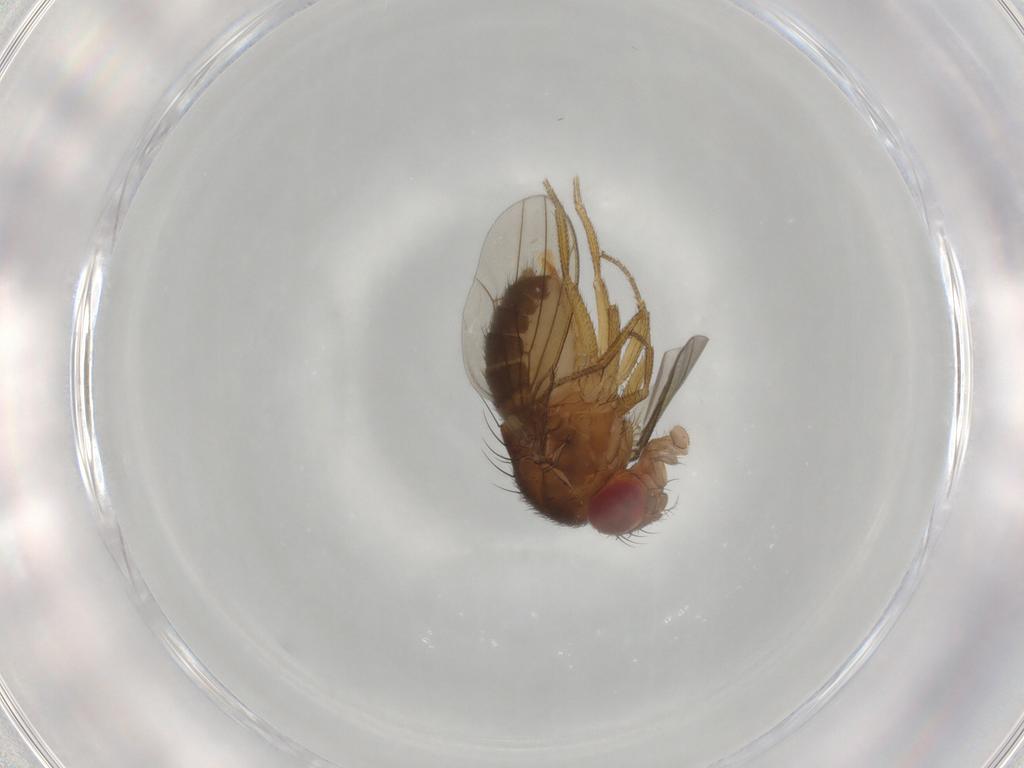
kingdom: Animalia
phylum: Arthropoda
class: Insecta
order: Diptera
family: Drosophilidae
